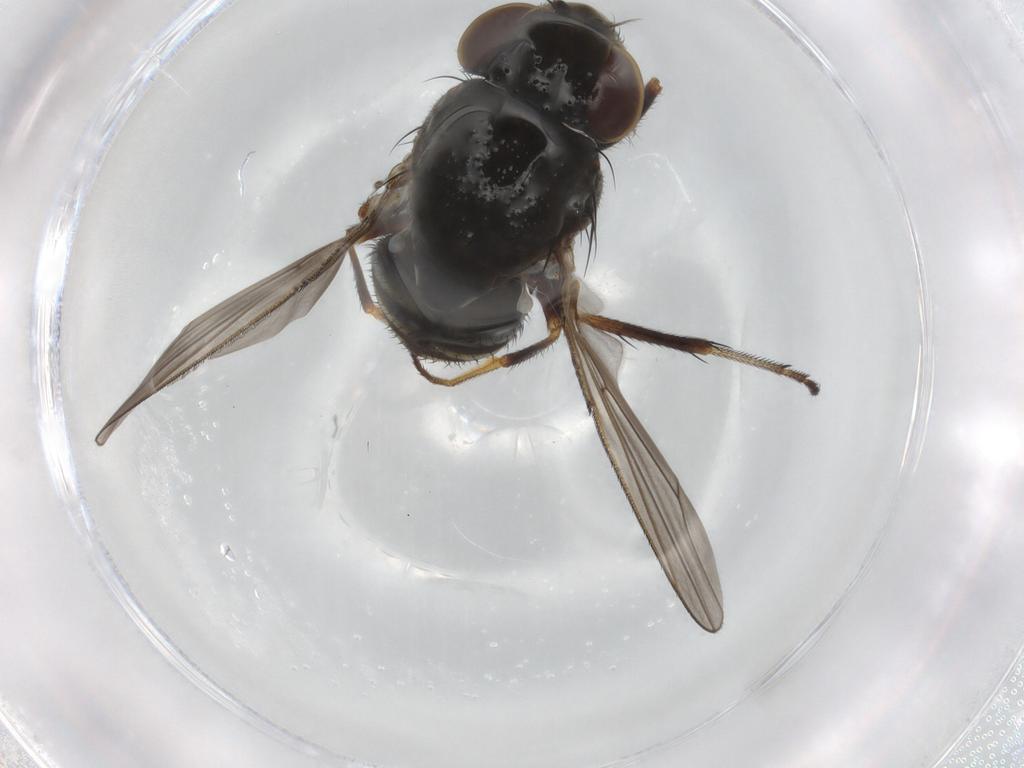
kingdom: Animalia
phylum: Arthropoda
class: Insecta
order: Diptera
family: Ephydridae
